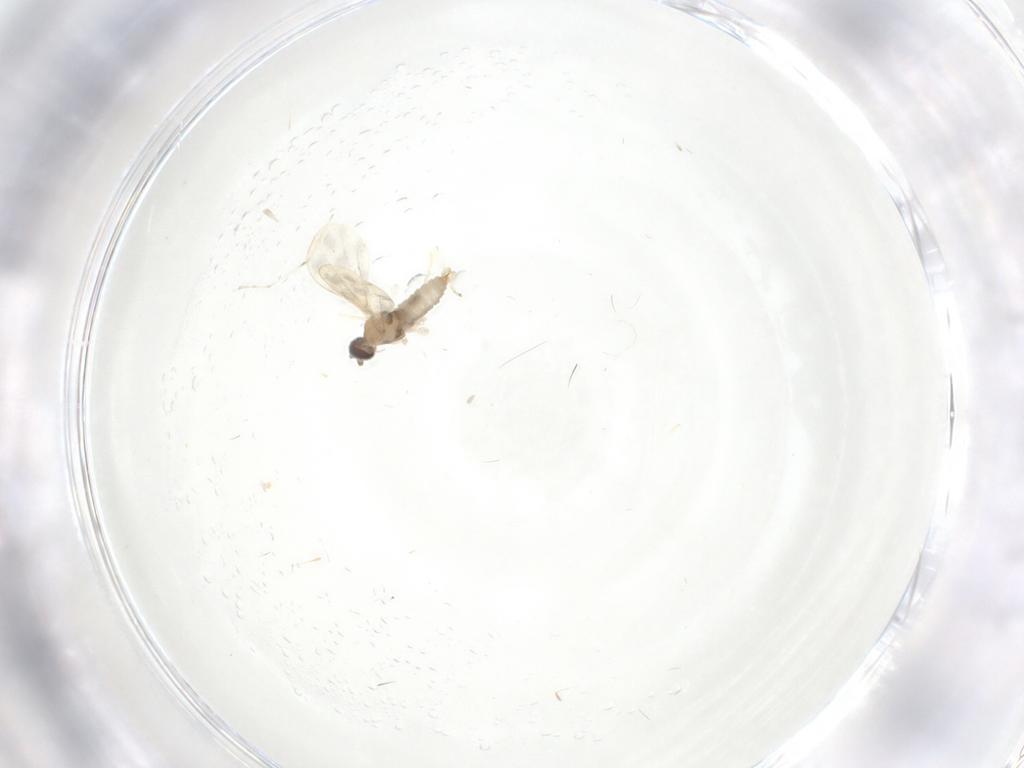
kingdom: Animalia
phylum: Arthropoda
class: Insecta
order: Diptera
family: Cecidomyiidae
